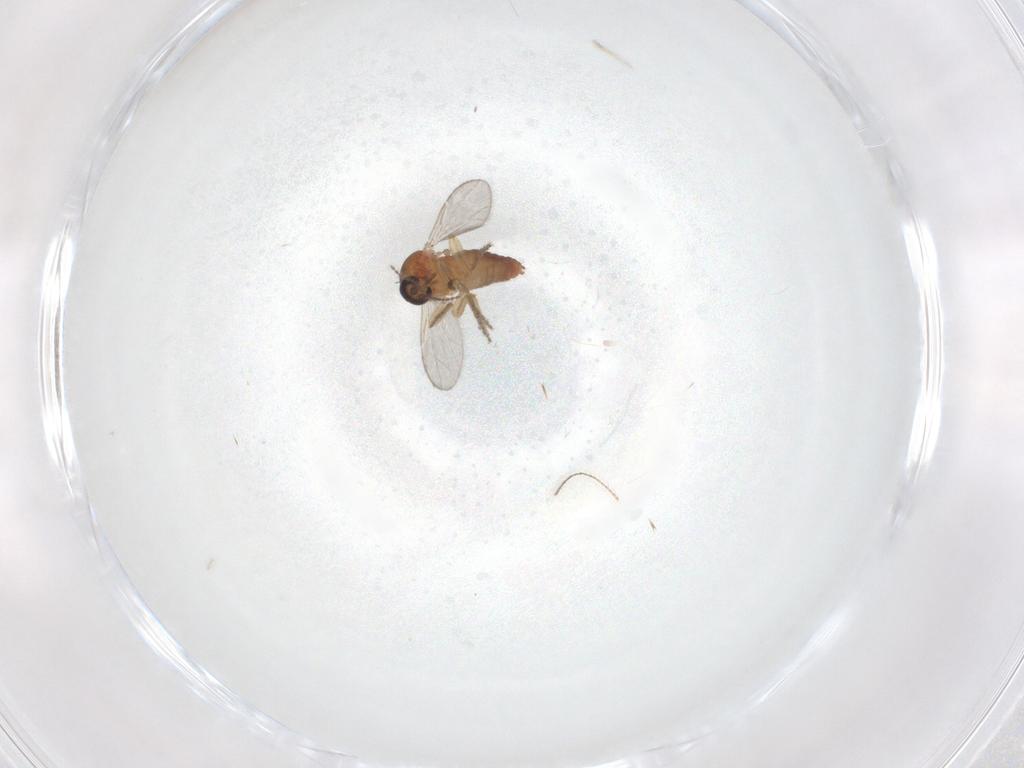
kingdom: Animalia
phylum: Arthropoda
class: Insecta
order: Diptera
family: Ceratopogonidae
